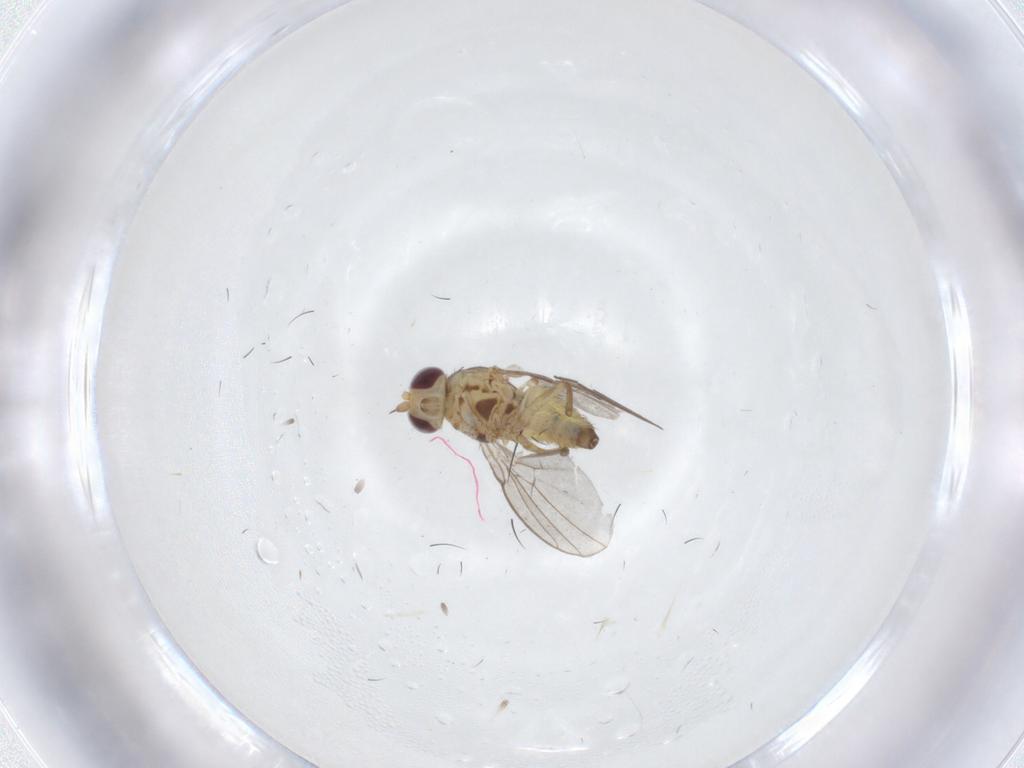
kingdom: Animalia
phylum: Arthropoda
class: Insecta
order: Diptera
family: Agromyzidae
